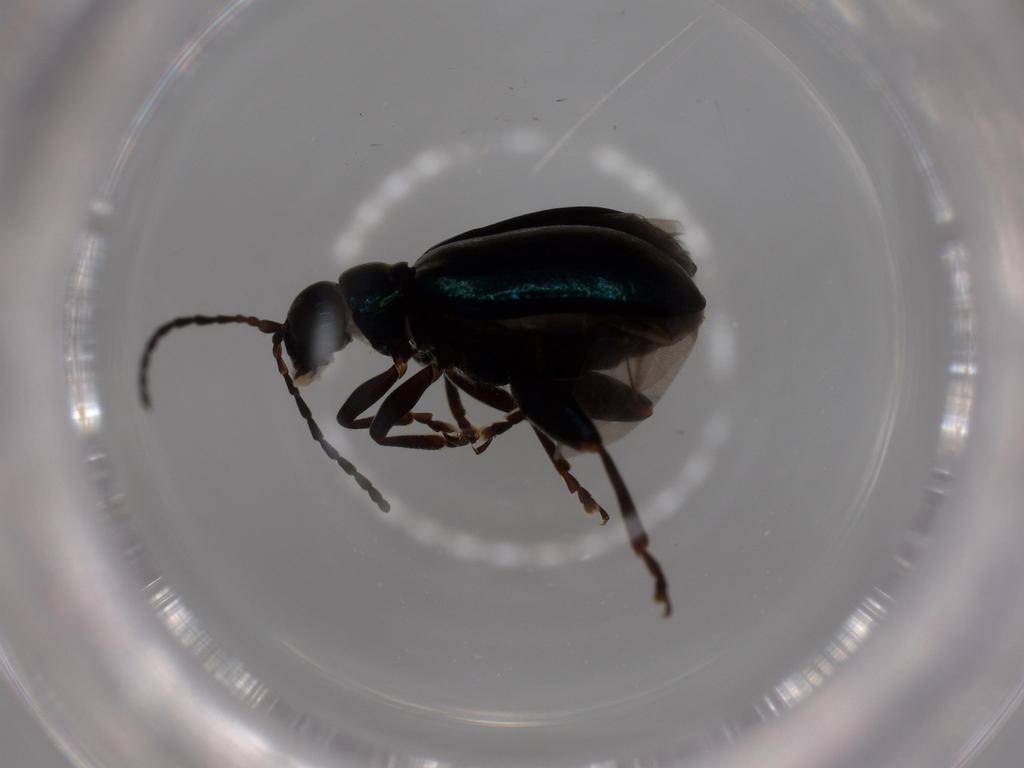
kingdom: Animalia
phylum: Arthropoda
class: Insecta
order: Coleoptera
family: Chrysomelidae
